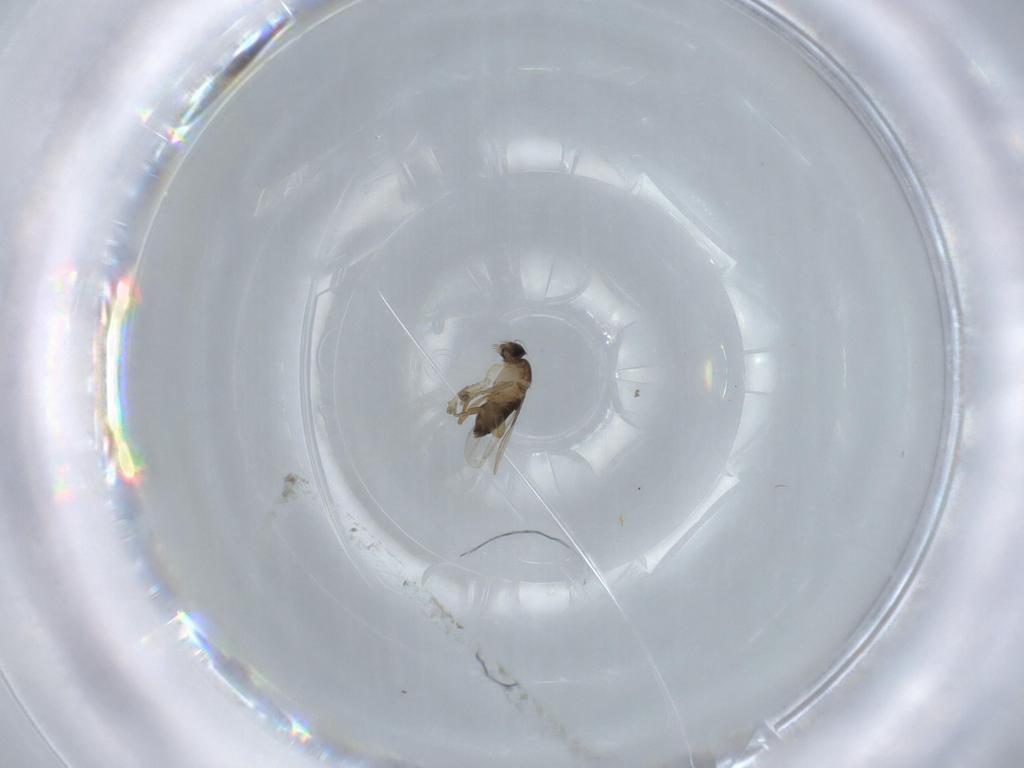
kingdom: Animalia
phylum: Arthropoda
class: Insecta
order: Diptera
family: Phoridae
